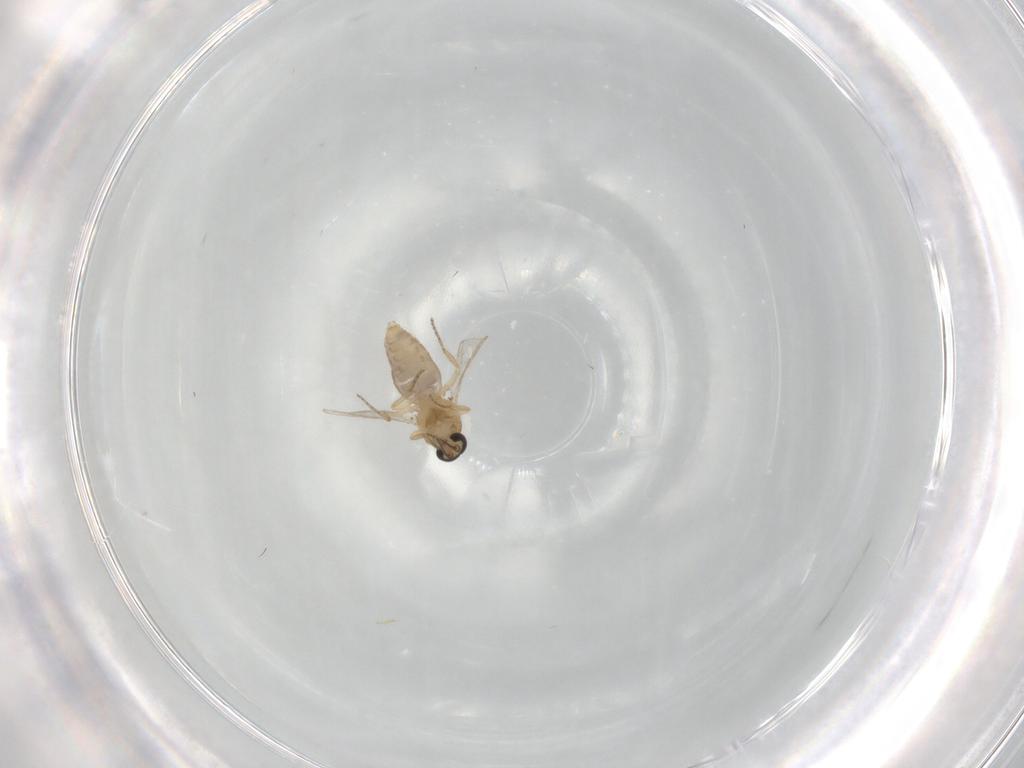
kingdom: Animalia
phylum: Arthropoda
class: Insecta
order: Diptera
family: Ceratopogonidae
